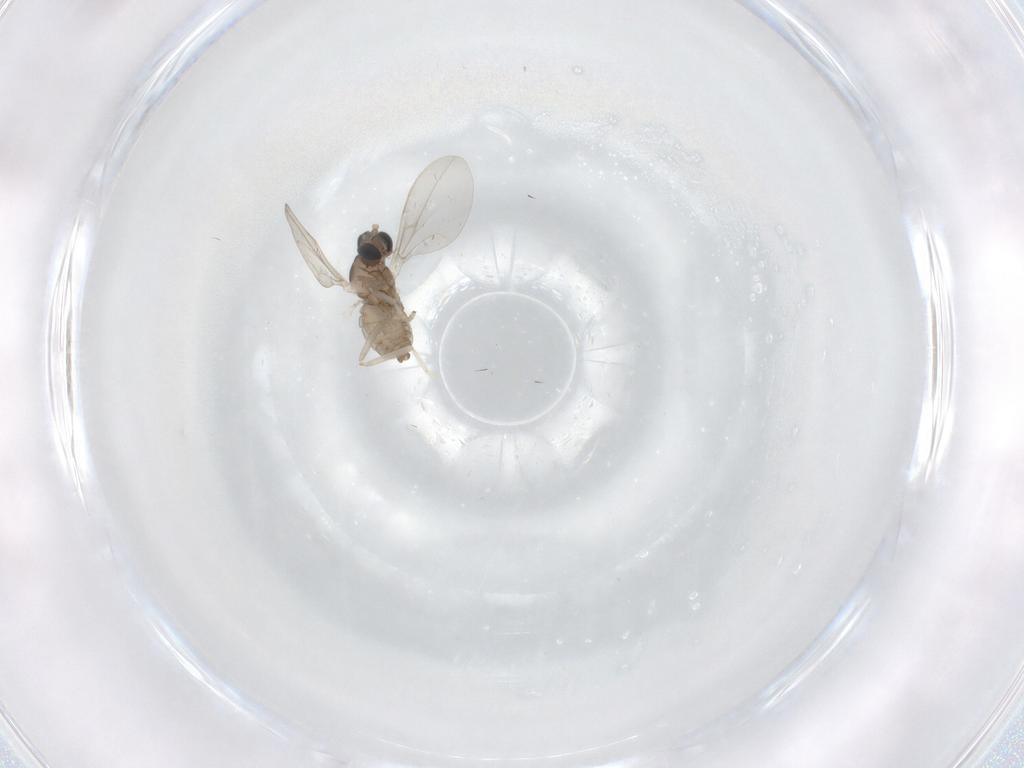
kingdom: Animalia
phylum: Arthropoda
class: Insecta
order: Diptera
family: Cecidomyiidae
